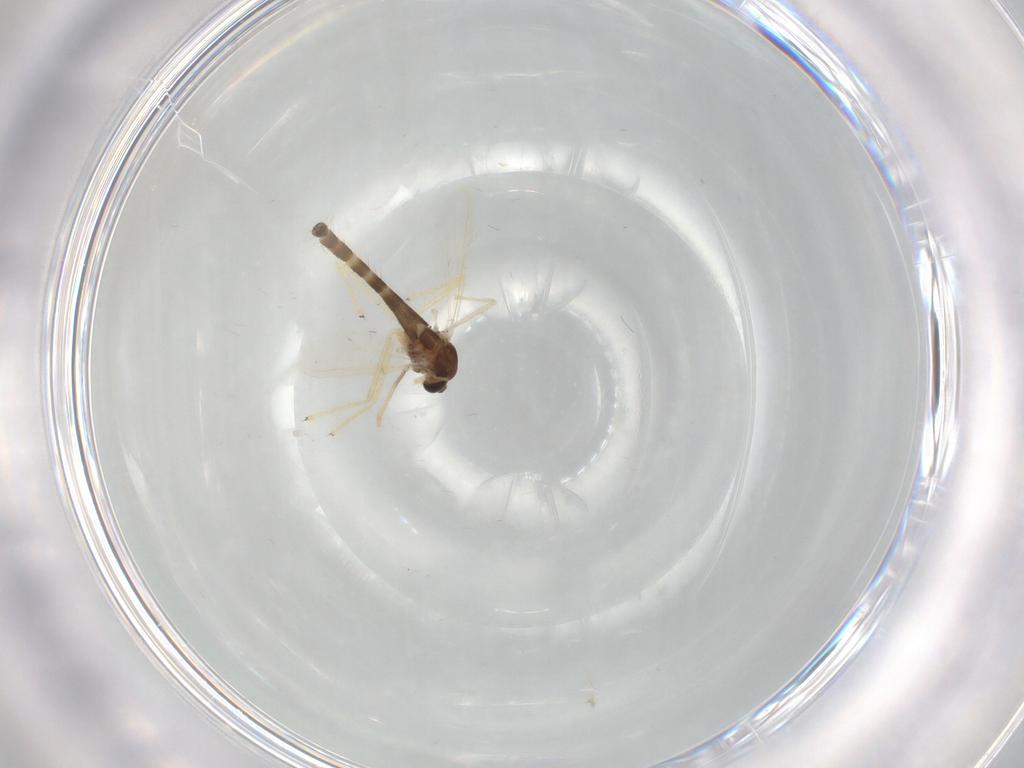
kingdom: Animalia
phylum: Arthropoda
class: Insecta
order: Diptera
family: Chironomidae
